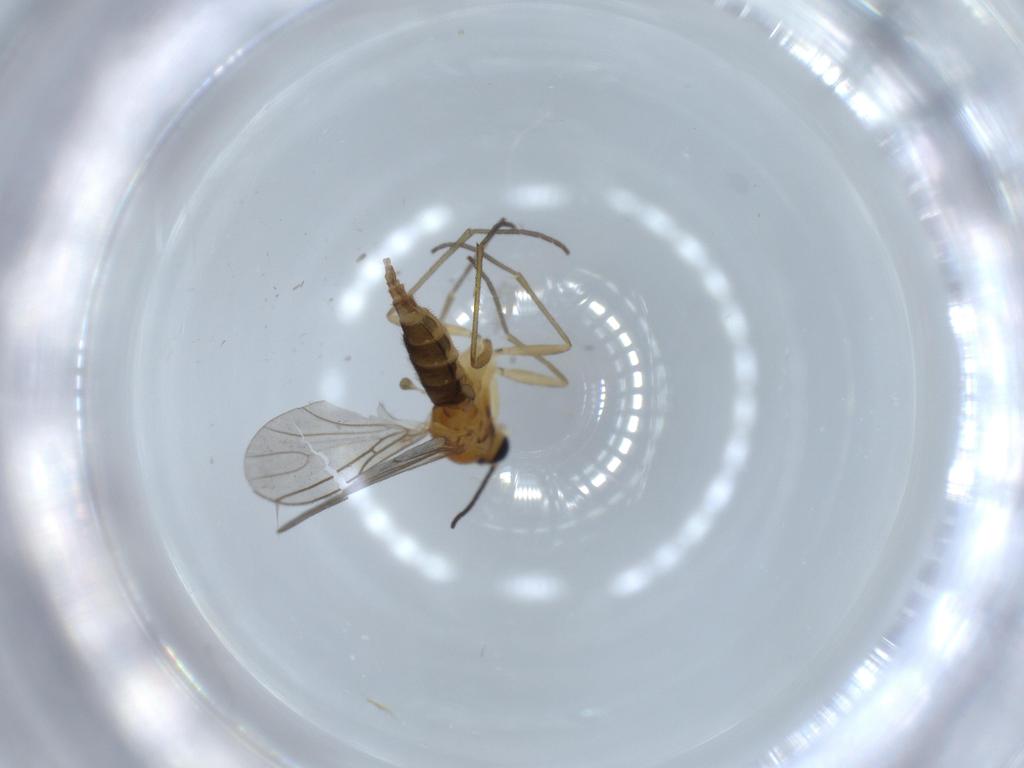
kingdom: Animalia
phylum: Arthropoda
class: Insecta
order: Diptera
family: Sciaridae
